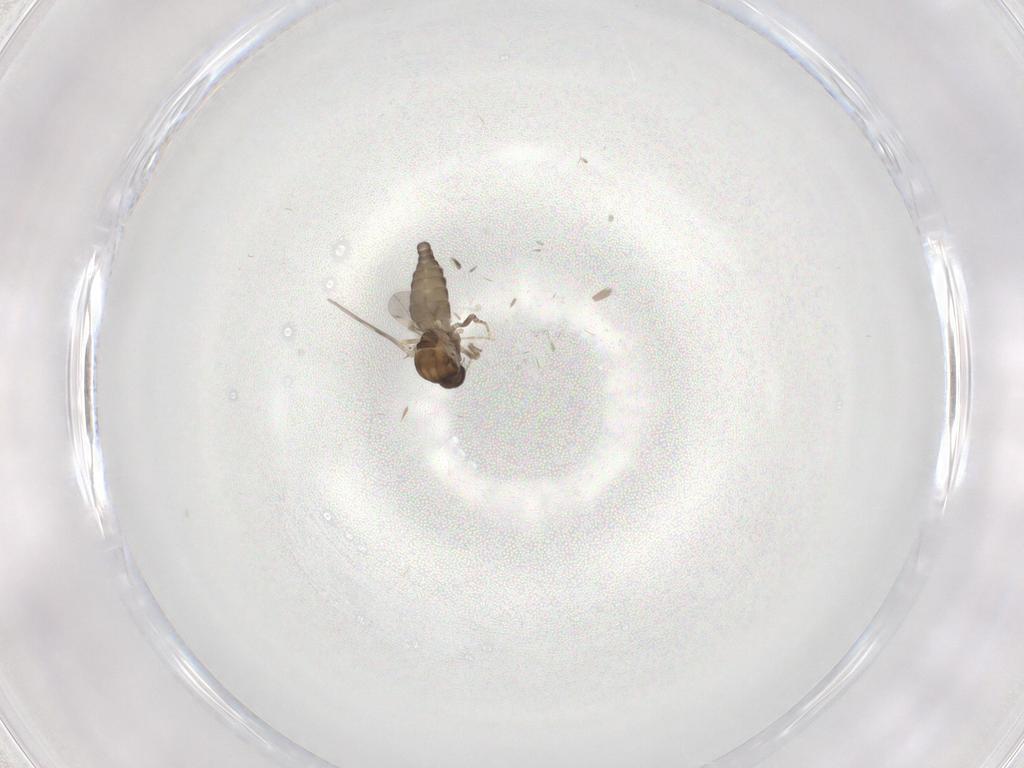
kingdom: Animalia
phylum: Arthropoda
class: Insecta
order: Diptera
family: Ceratopogonidae
